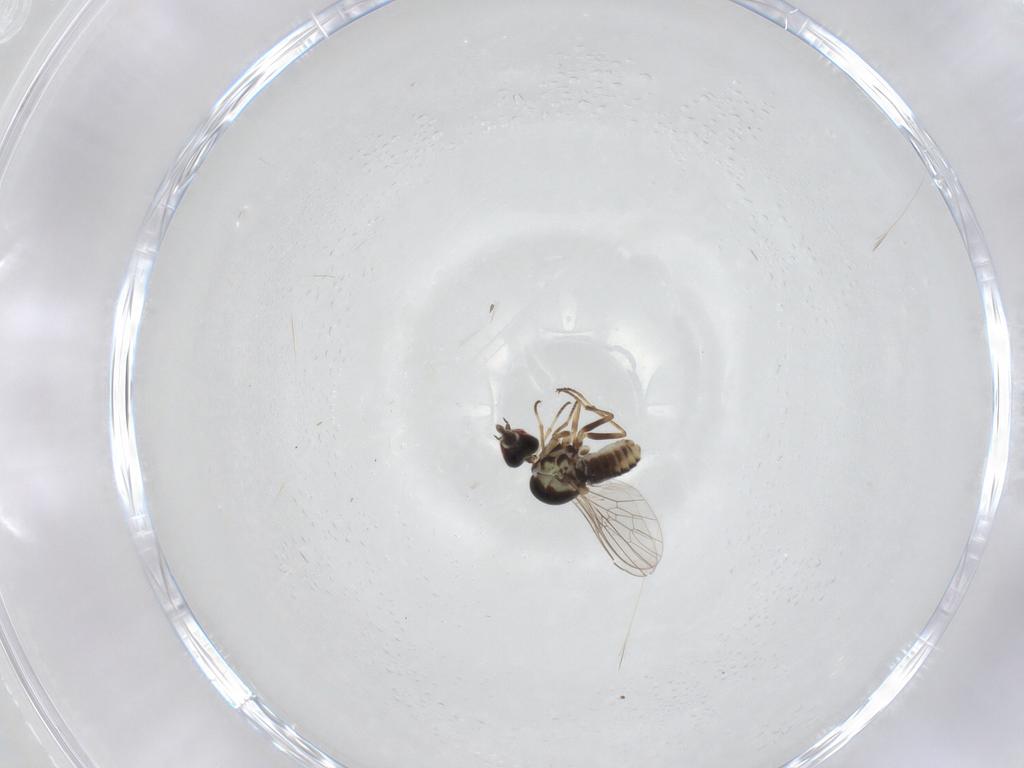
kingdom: Animalia
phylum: Arthropoda
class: Insecta
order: Diptera
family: Mythicomyiidae
